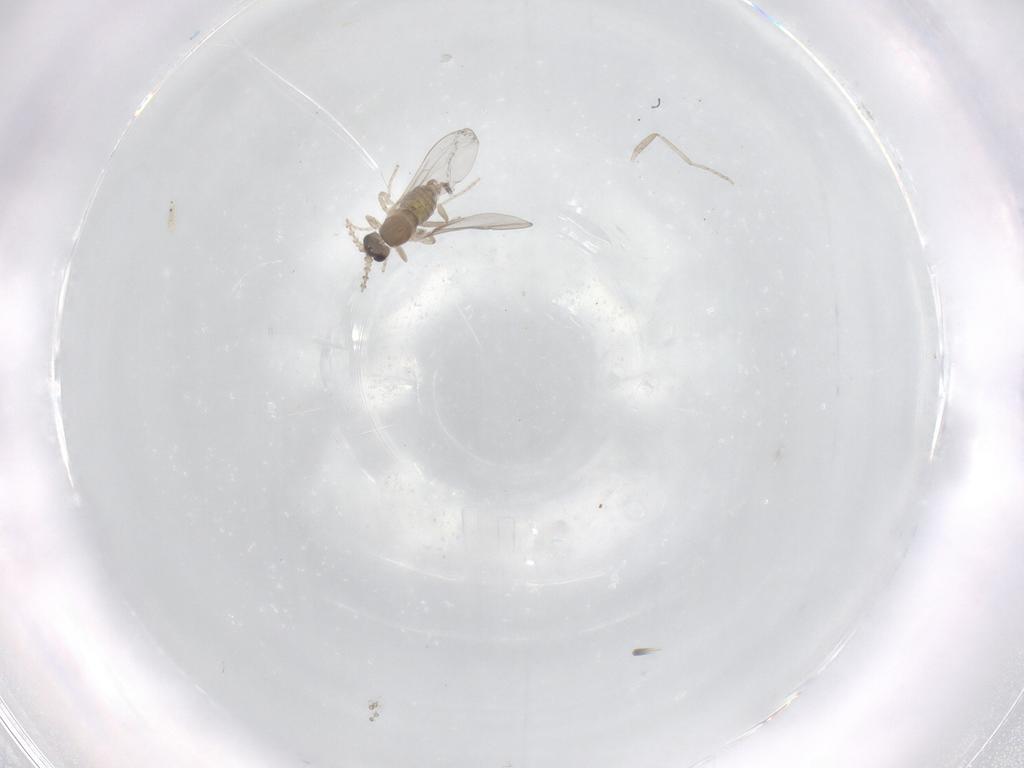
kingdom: Animalia
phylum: Arthropoda
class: Insecta
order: Diptera
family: Cecidomyiidae
